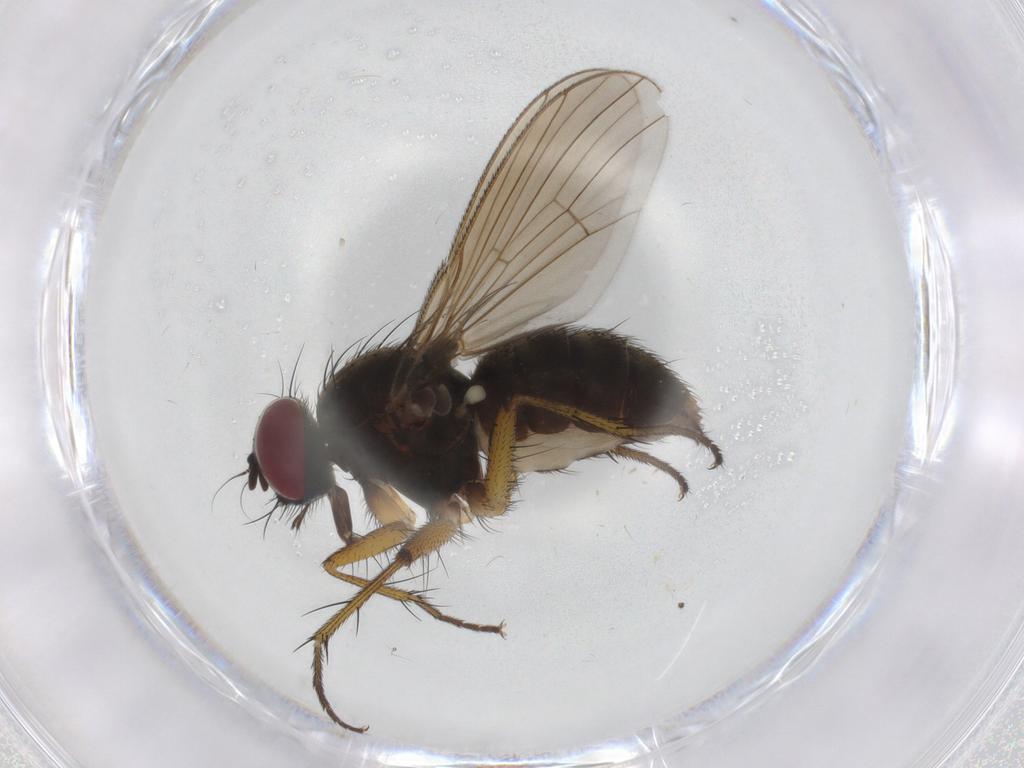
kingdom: Animalia
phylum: Arthropoda
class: Insecta
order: Diptera
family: Muscidae
